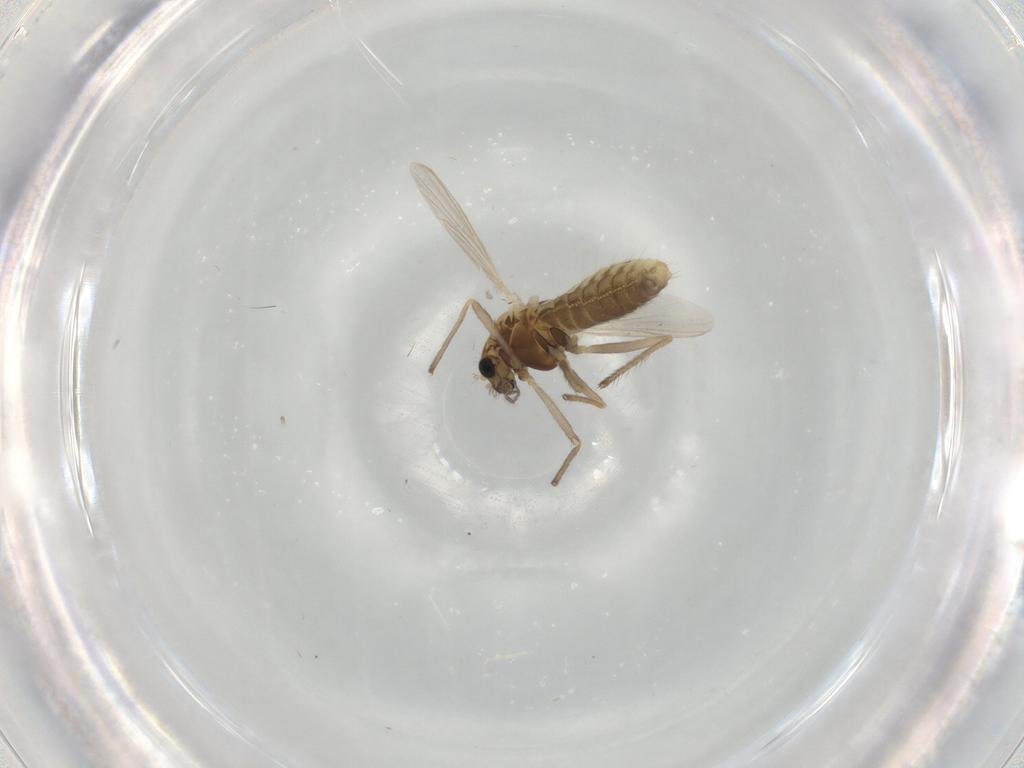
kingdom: Animalia
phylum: Arthropoda
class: Insecta
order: Diptera
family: Chironomidae
